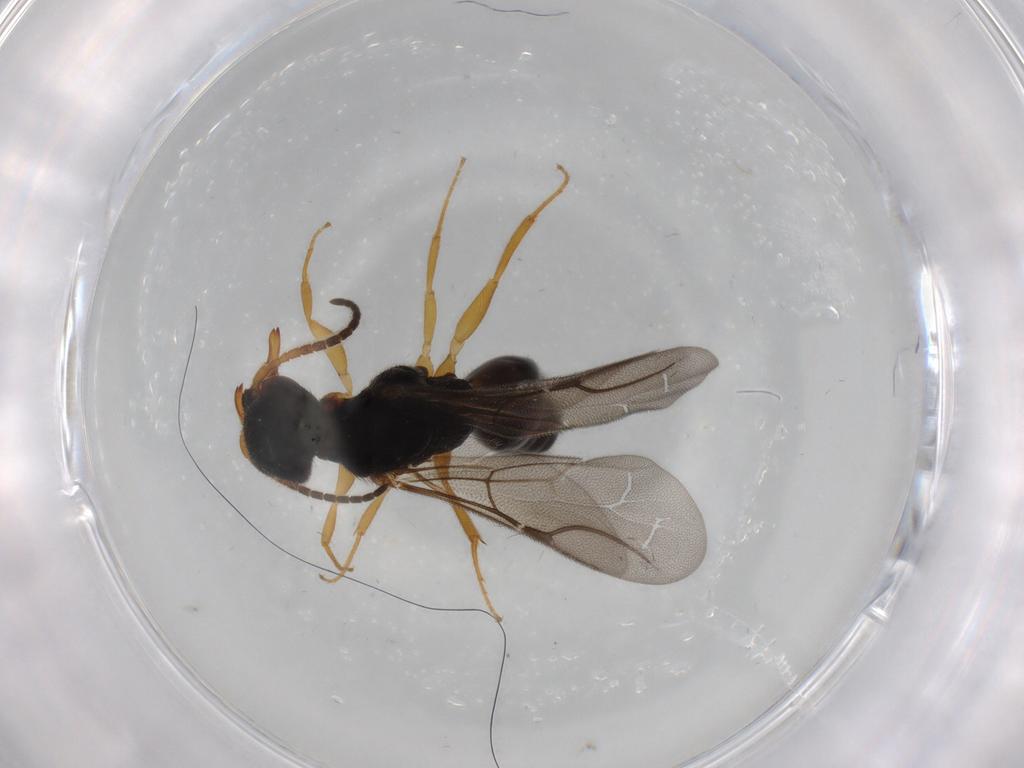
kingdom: Animalia
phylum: Arthropoda
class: Insecta
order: Hymenoptera
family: Bethylidae
